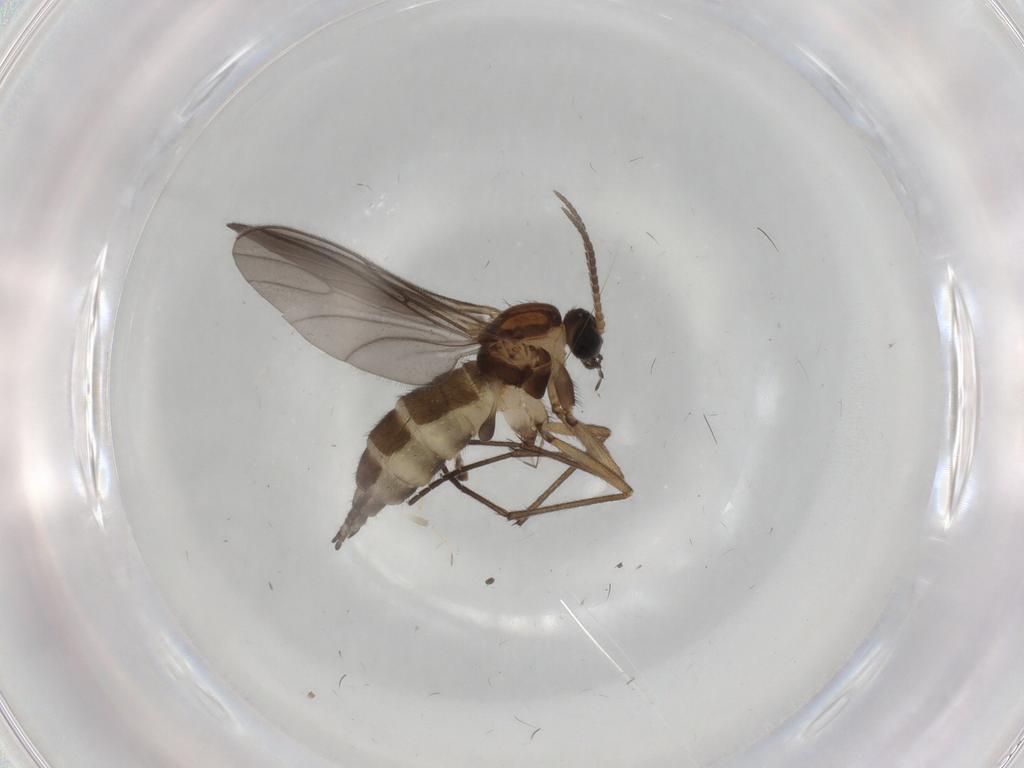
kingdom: Animalia
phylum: Arthropoda
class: Insecta
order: Diptera
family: Sciaridae
